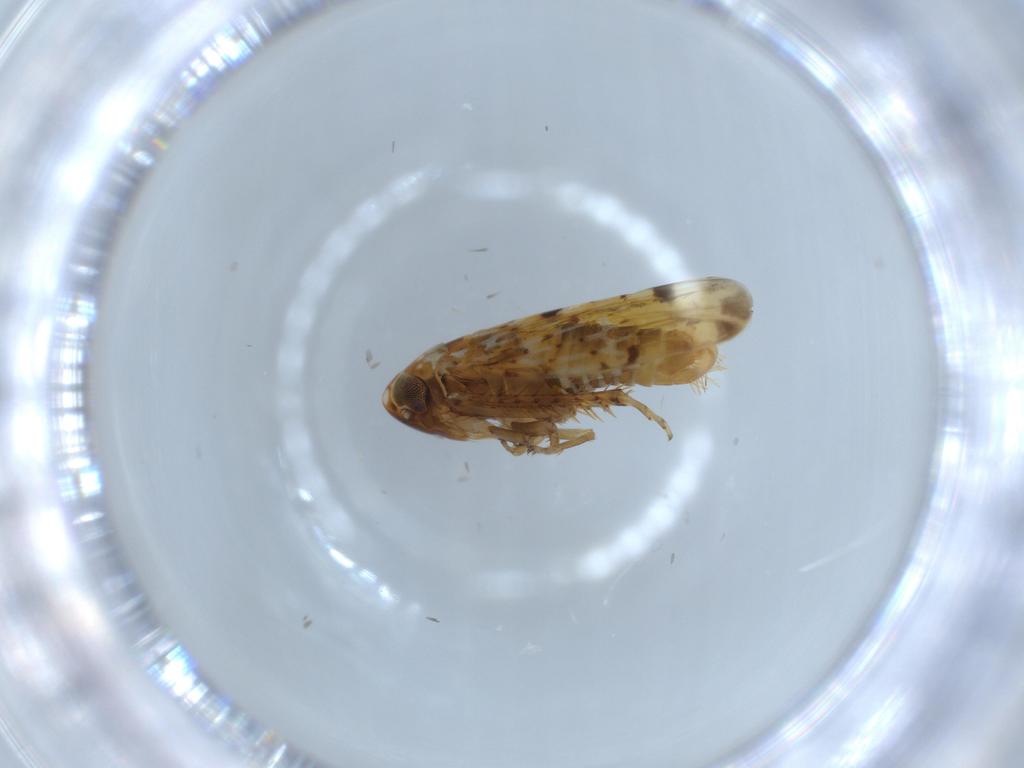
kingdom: Animalia
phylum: Arthropoda
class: Insecta
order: Hemiptera
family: Cicadellidae
